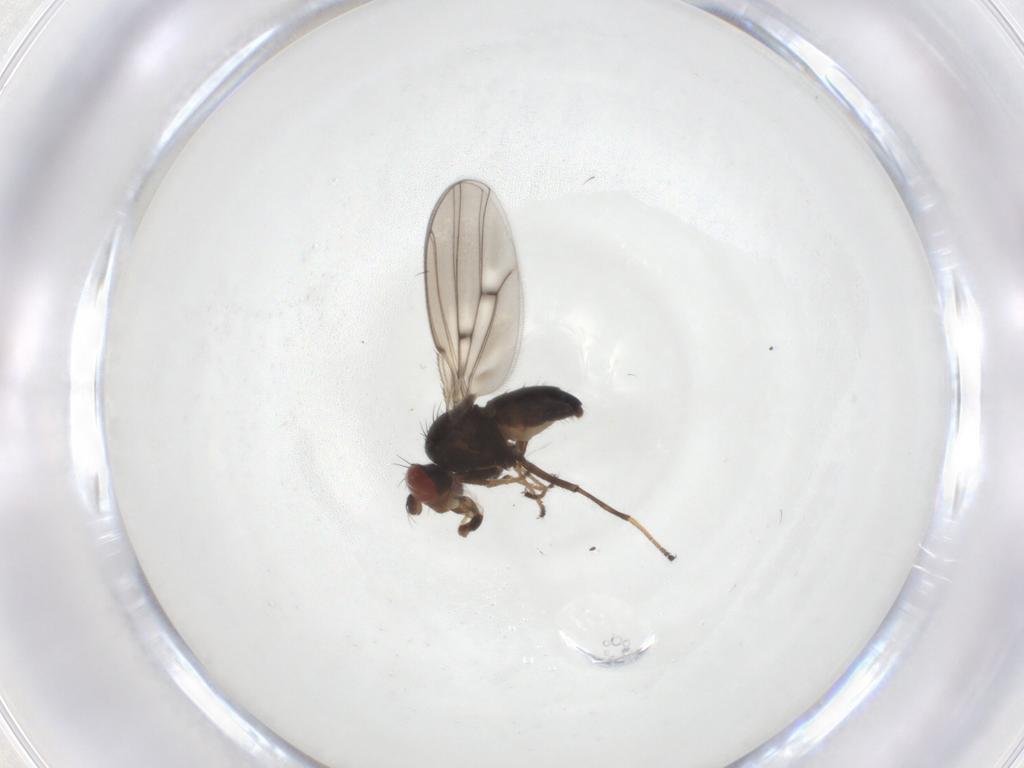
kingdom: Animalia
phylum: Arthropoda
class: Insecta
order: Diptera
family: Ephydridae
